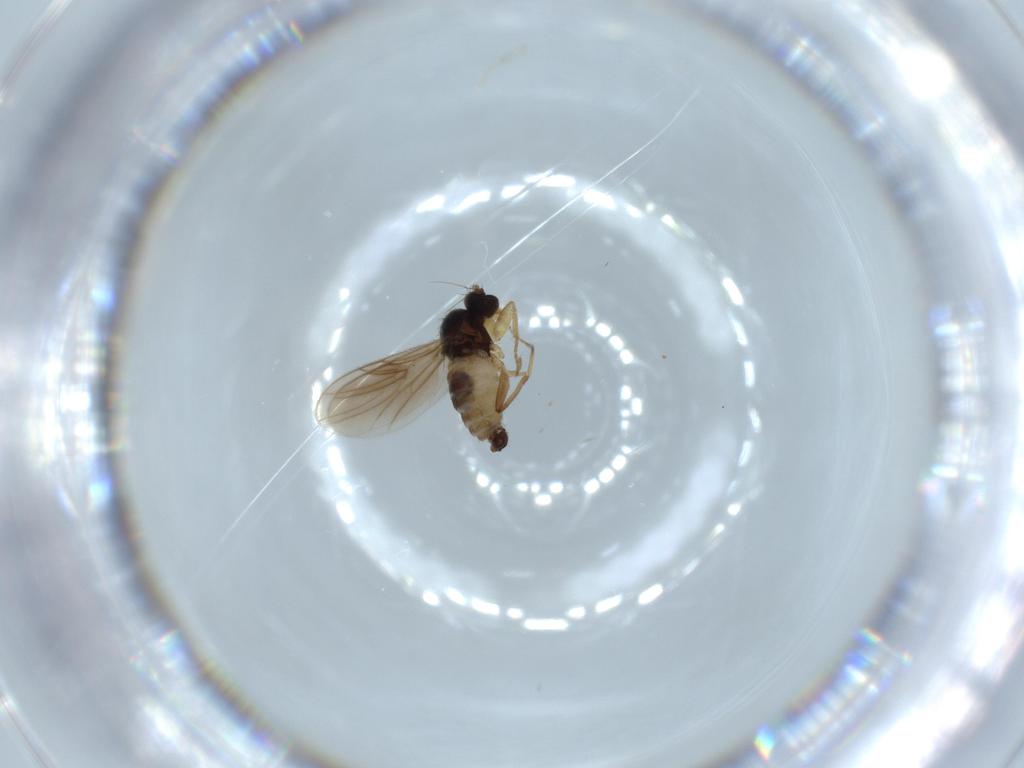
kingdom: Animalia
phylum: Arthropoda
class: Insecta
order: Diptera
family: Hybotidae
